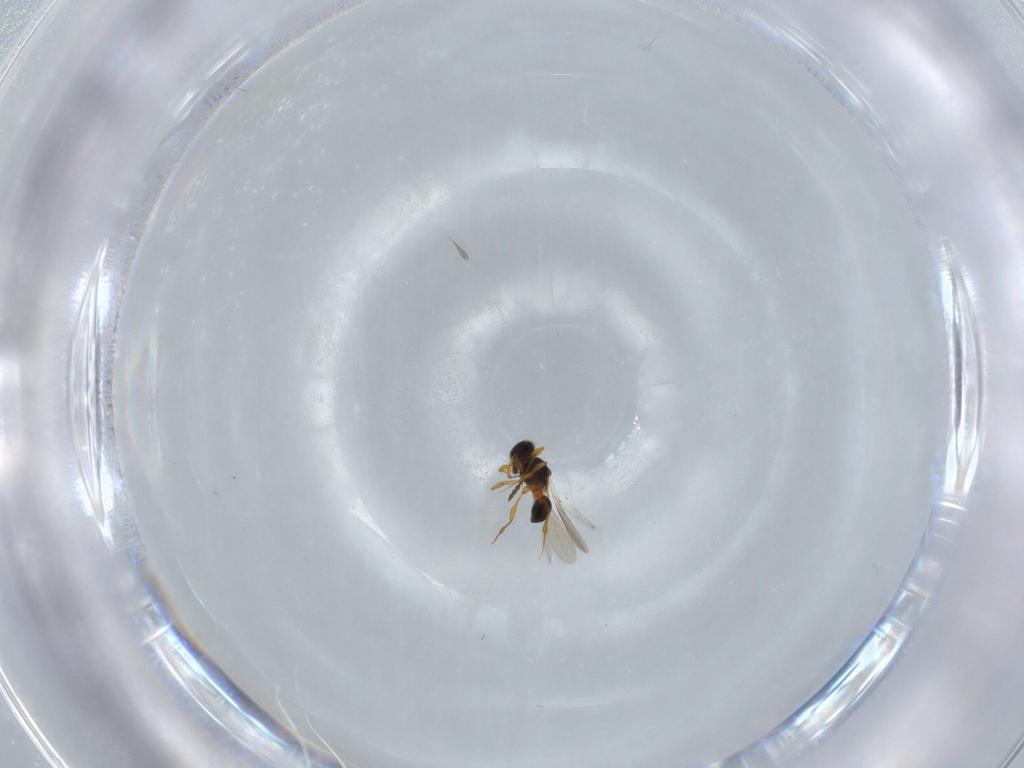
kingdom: Animalia
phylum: Arthropoda
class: Insecta
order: Hymenoptera
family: Platygastridae
